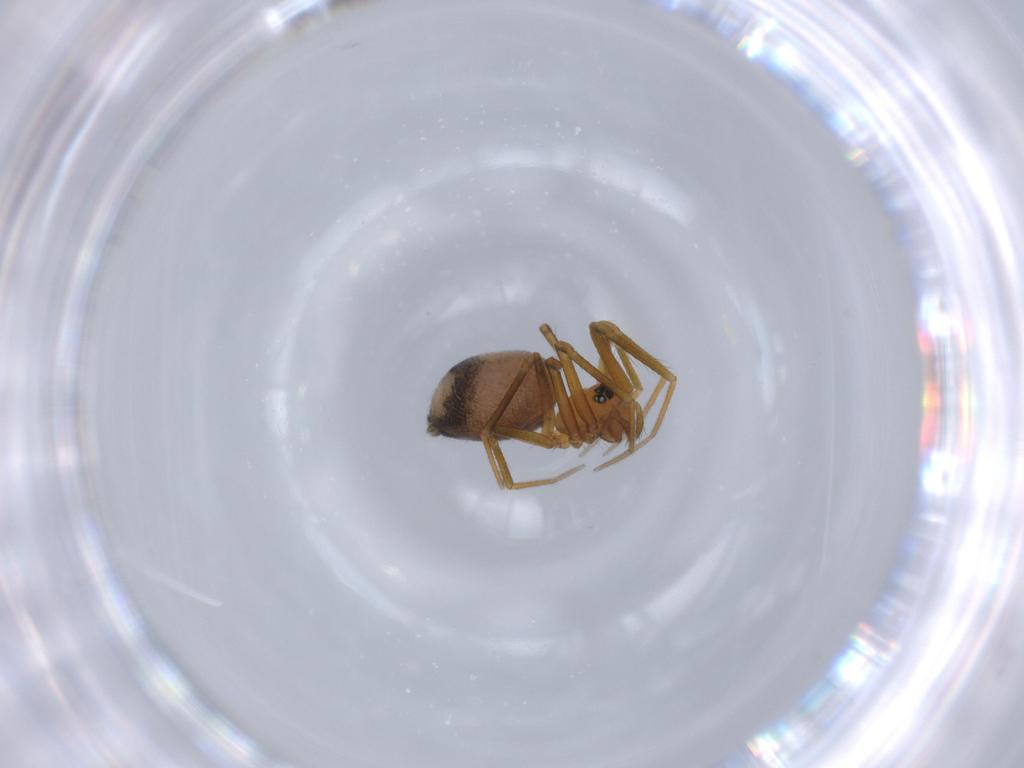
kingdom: Animalia
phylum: Arthropoda
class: Arachnida
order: Araneae
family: Linyphiidae
